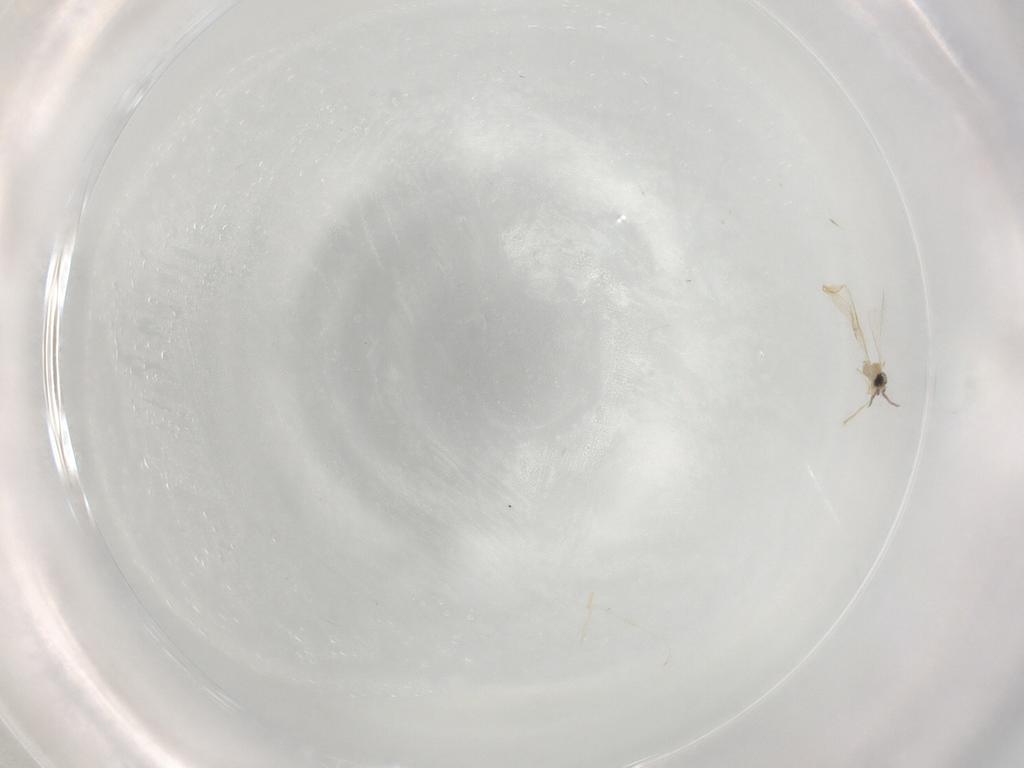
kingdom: Animalia
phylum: Arthropoda
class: Insecta
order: Diptera
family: Cecidomyiidae
